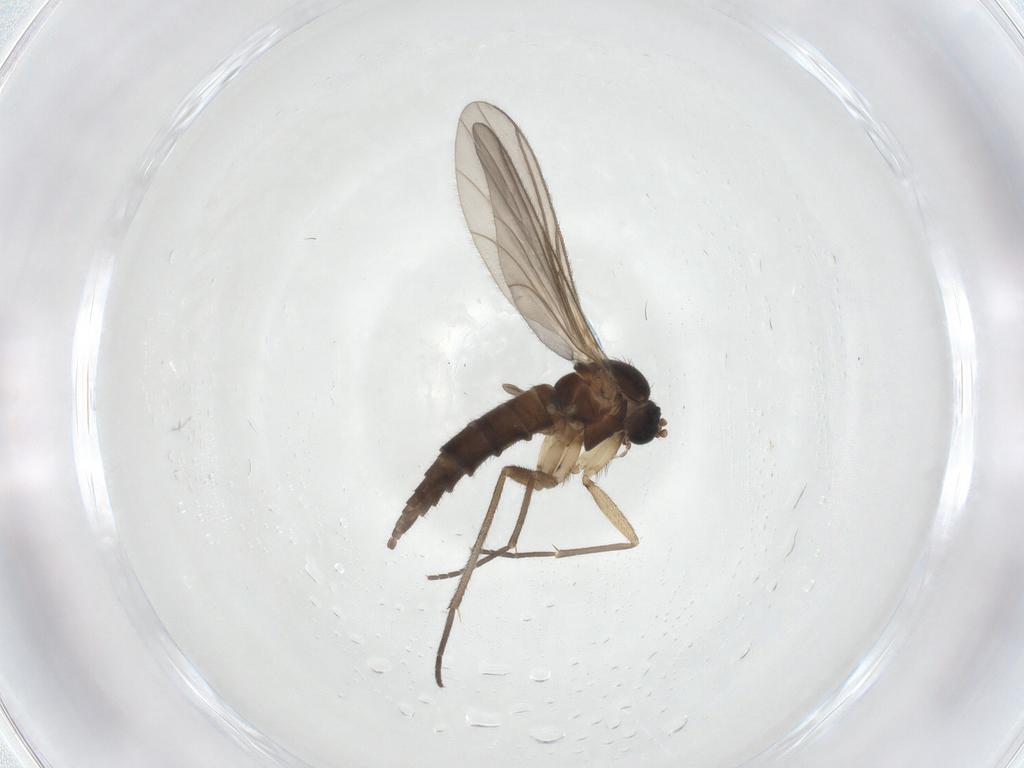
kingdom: Animalia
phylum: Arthropoda
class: Insecta
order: Diptera
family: Sciaridae
